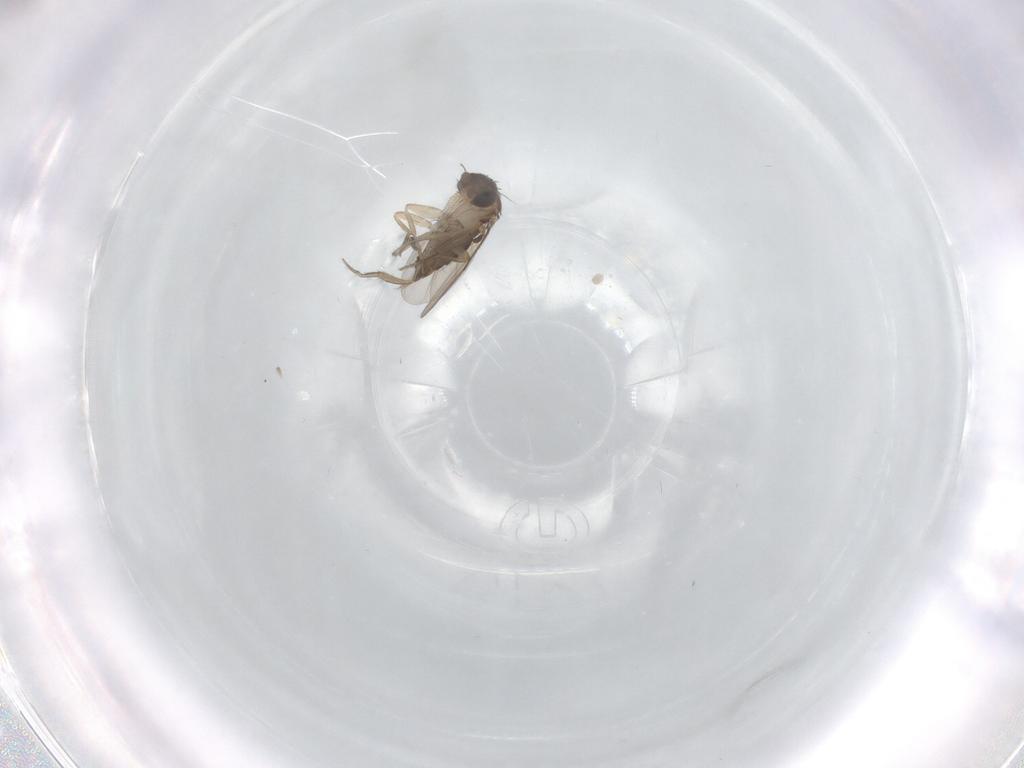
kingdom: Animalia
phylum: Arthropoda
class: Insecta
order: Diptera
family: Phoridae
